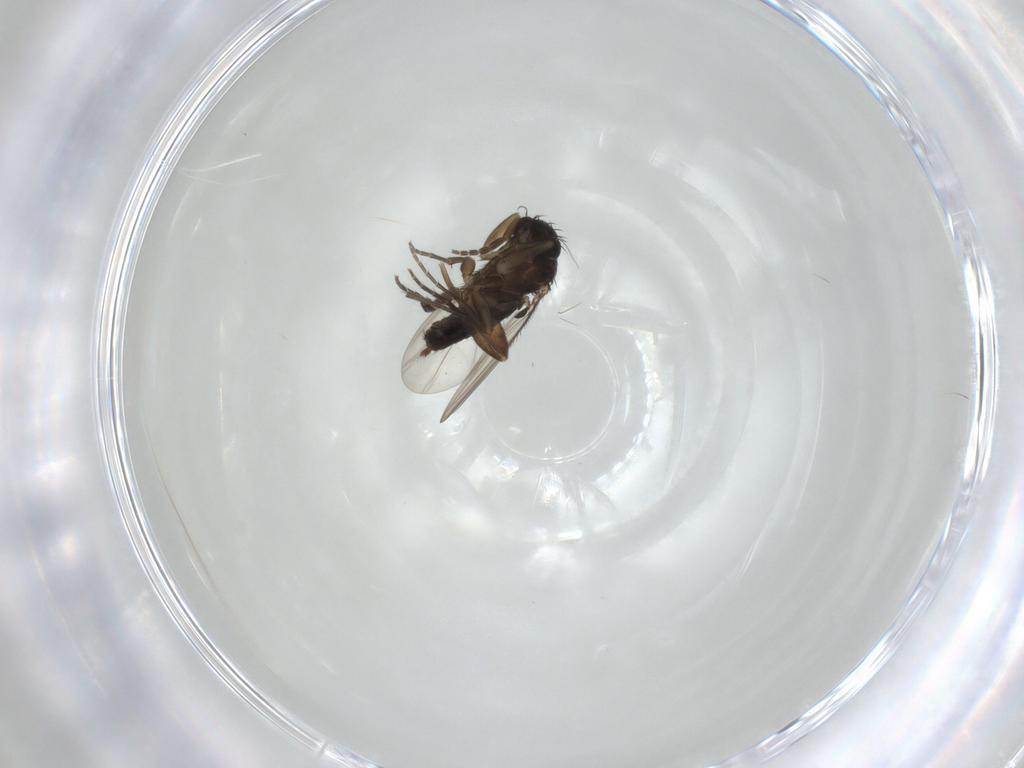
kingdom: Animalia
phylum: Arthropoda
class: Insecta
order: Diptera
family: Phoridae
